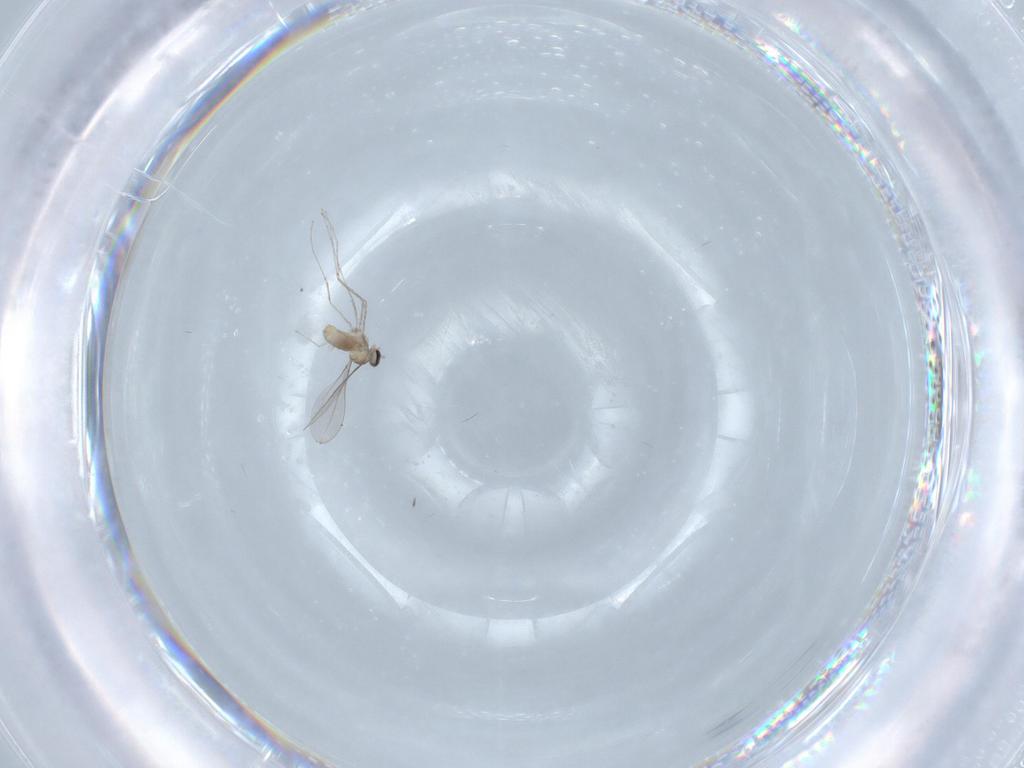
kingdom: Animalia
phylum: Arthropoda
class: Insecta
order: Diptera
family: Cecidomyiidae
